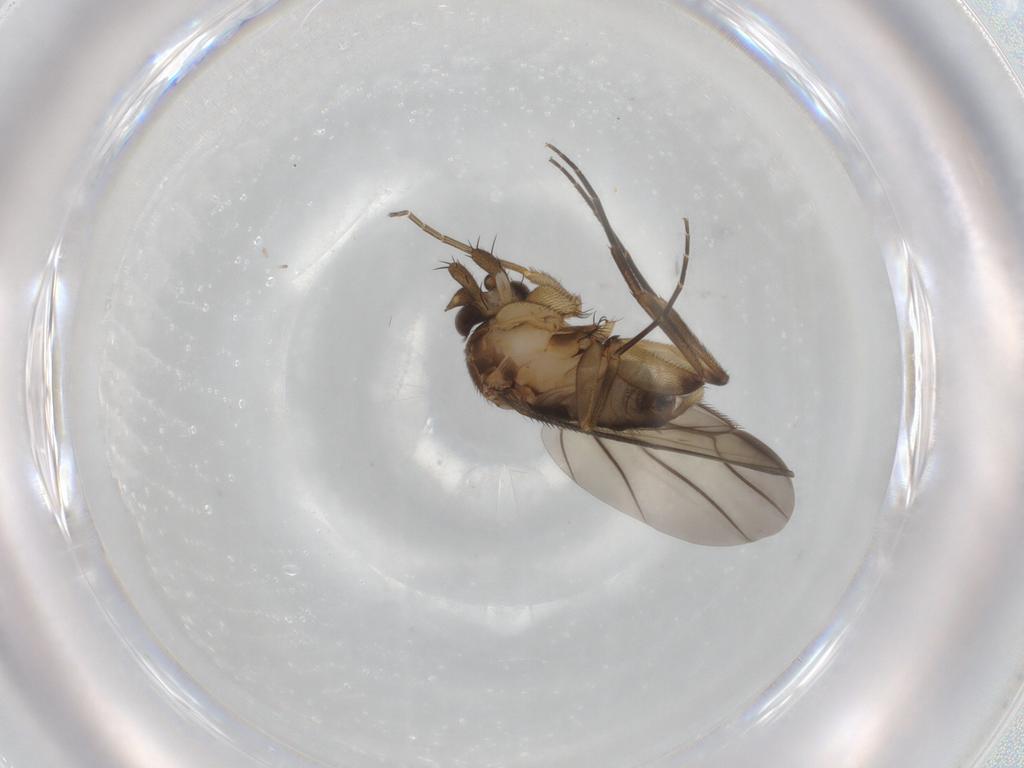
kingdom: Animalia
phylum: Arthropoda
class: Insecta
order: Diptera
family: Phoridae
